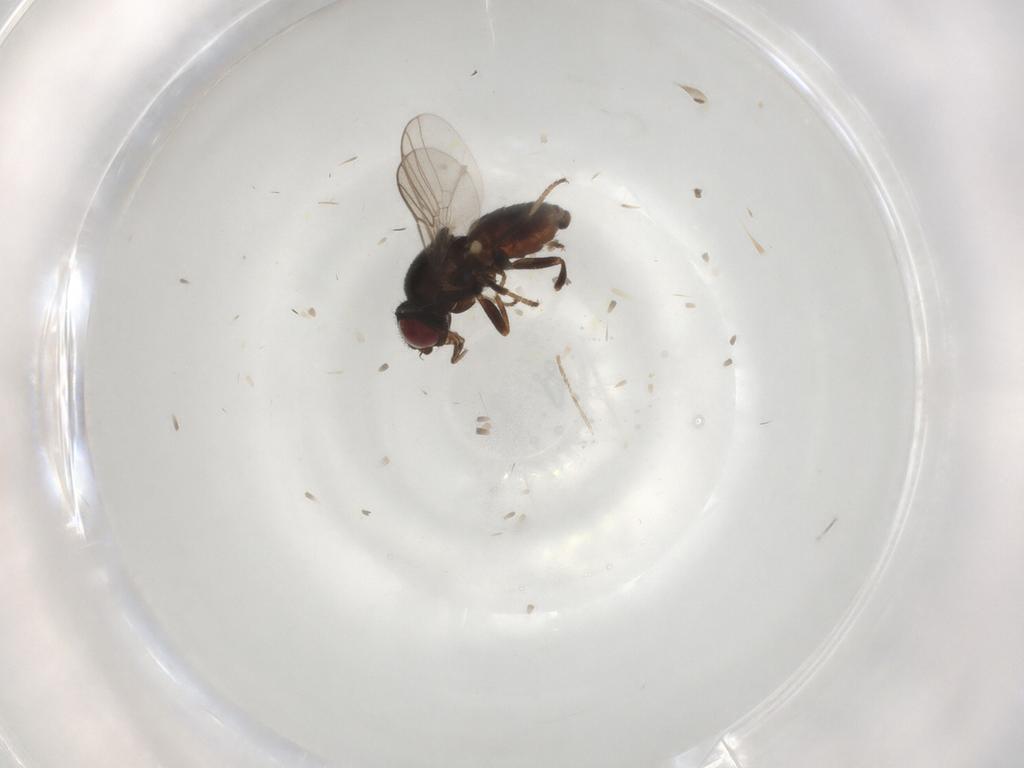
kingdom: Animalia
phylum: Arthropoda
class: Insecta
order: Diptera
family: Chloropidae
